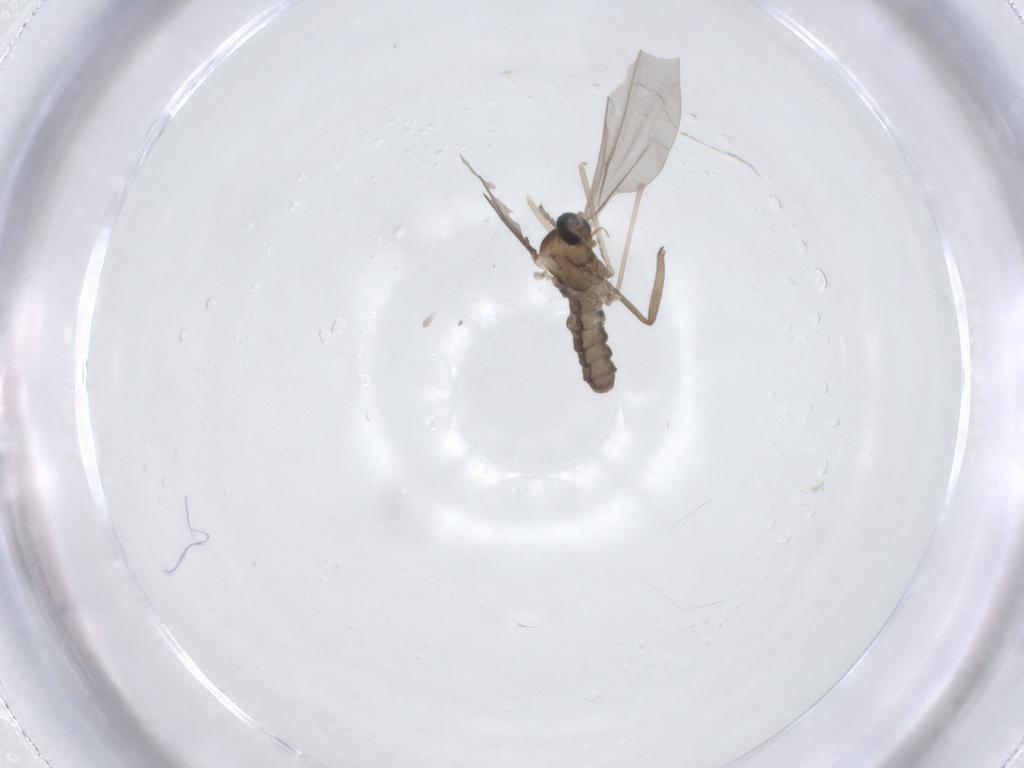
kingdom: Animalia
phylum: Arthropoda
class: Insecta
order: Diptera
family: Cecidomyiidae
